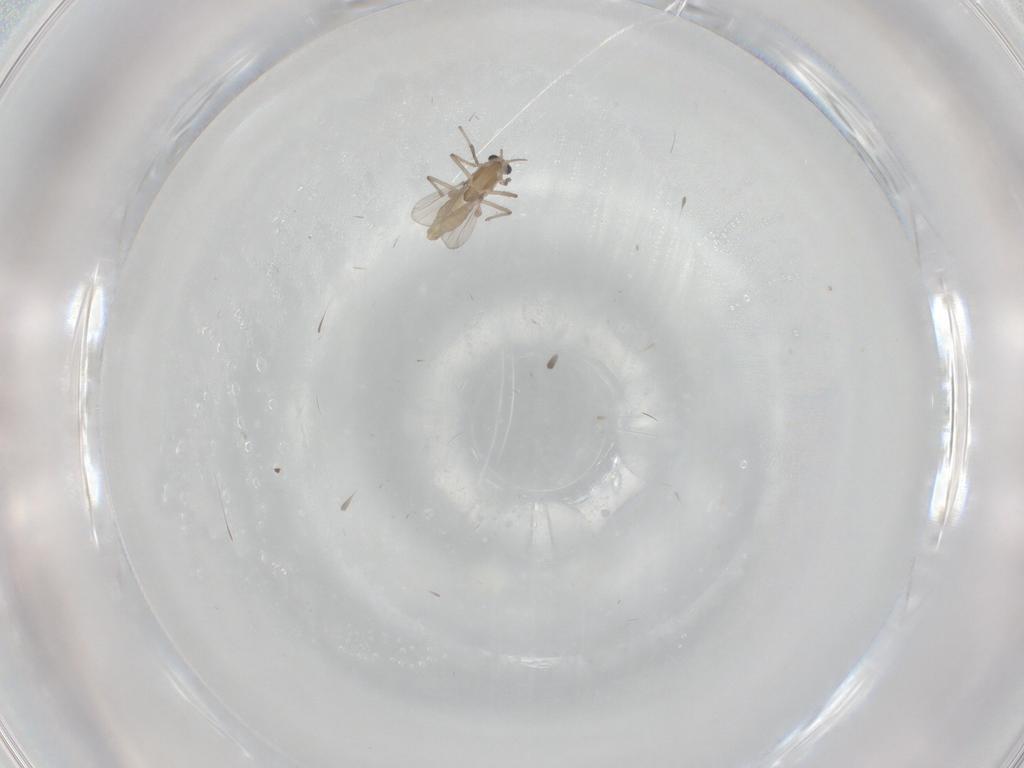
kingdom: Animalia
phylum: Arthropoda
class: Insecta
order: Diptera
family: Chironomidae
